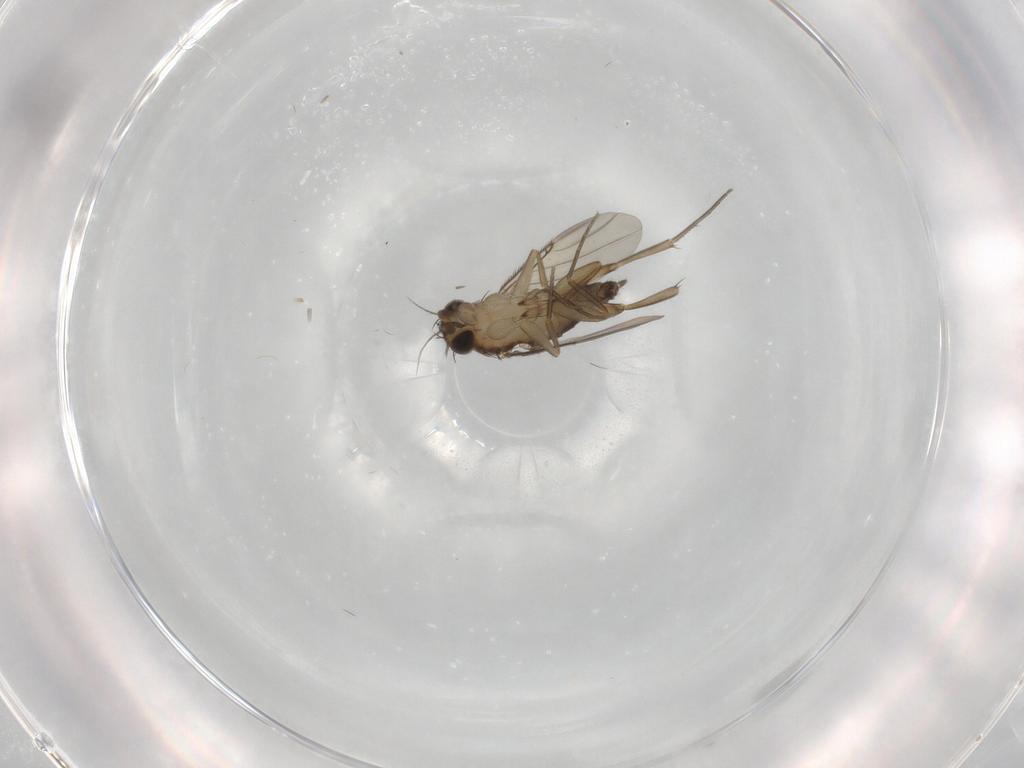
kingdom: Animalia
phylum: Arthropoda
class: Insecta
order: Diptera
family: Phoridae
